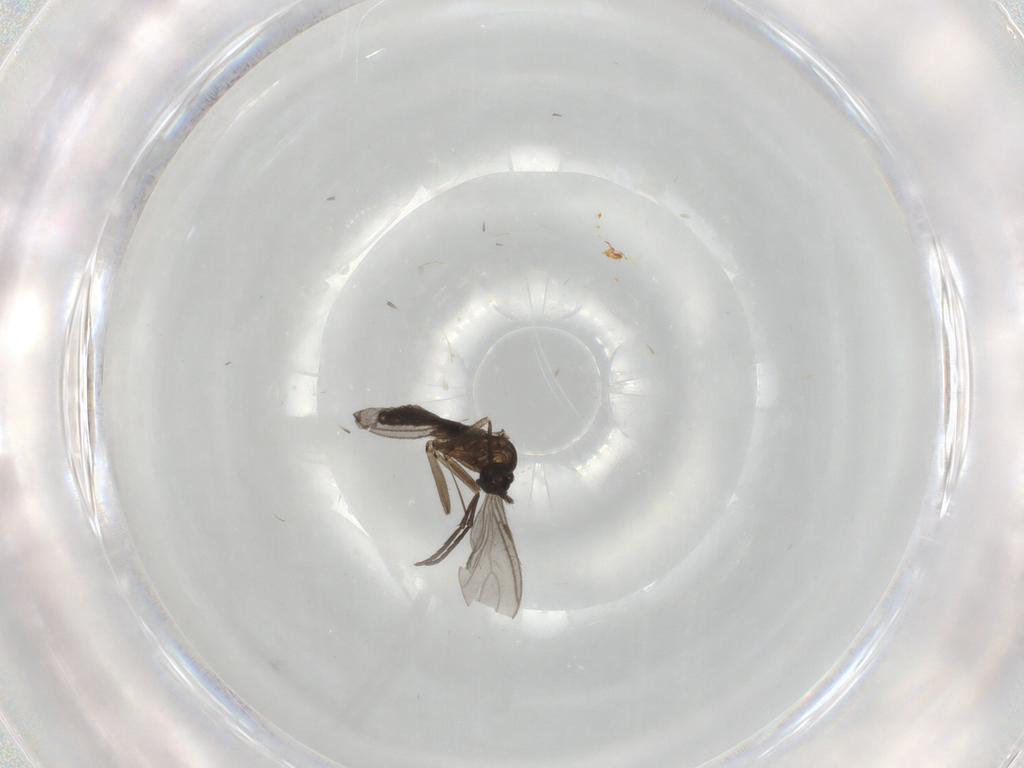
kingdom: Animalia
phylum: Arthropoda
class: Insecta
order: Diptera
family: Sciaridae
